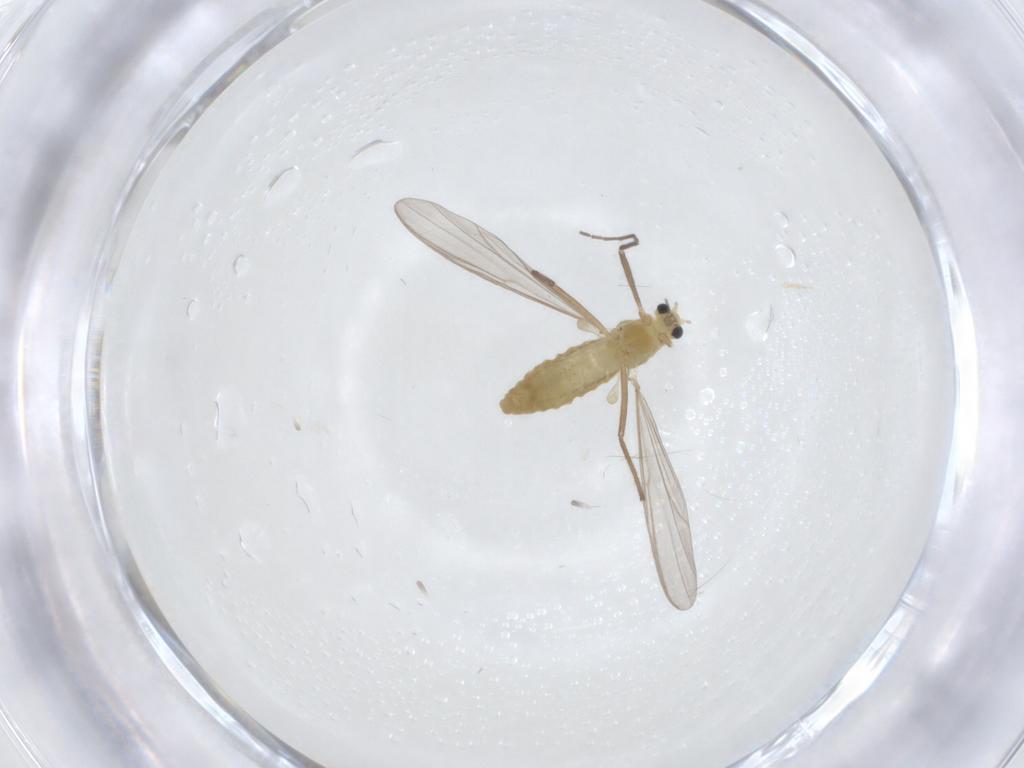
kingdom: Animalia
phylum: Arthropoda
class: Insecta
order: Diptera
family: Chironomidae
